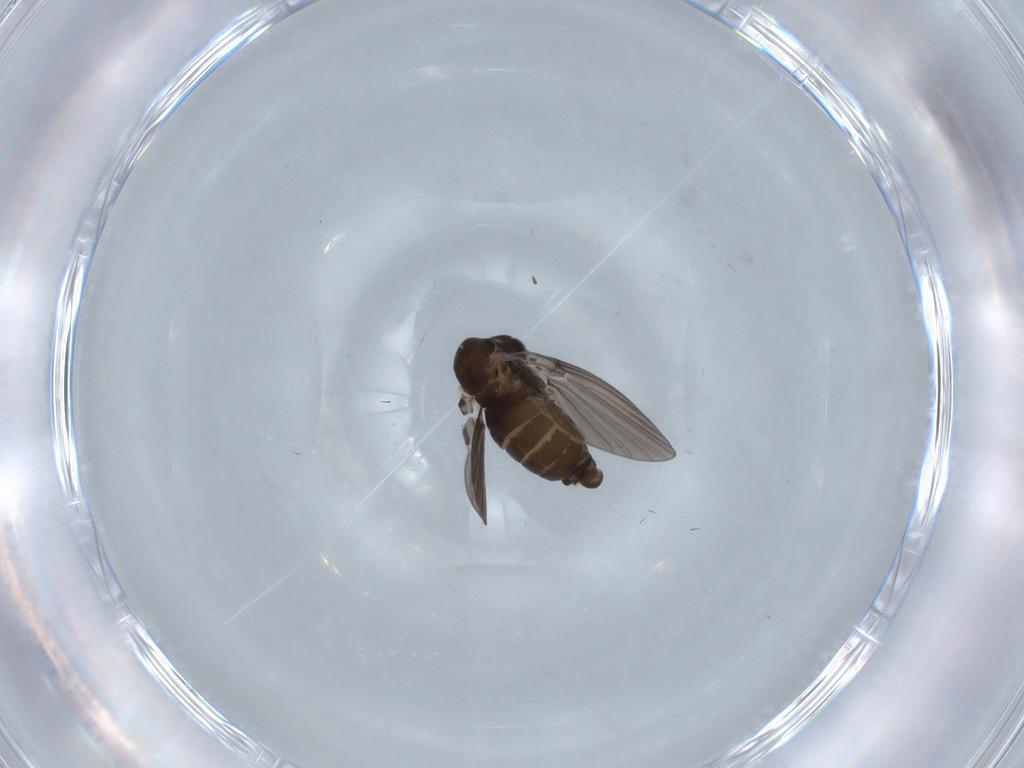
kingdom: Animalia
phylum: Arthropoda
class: Insecta
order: Diptera
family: Psychodidae
